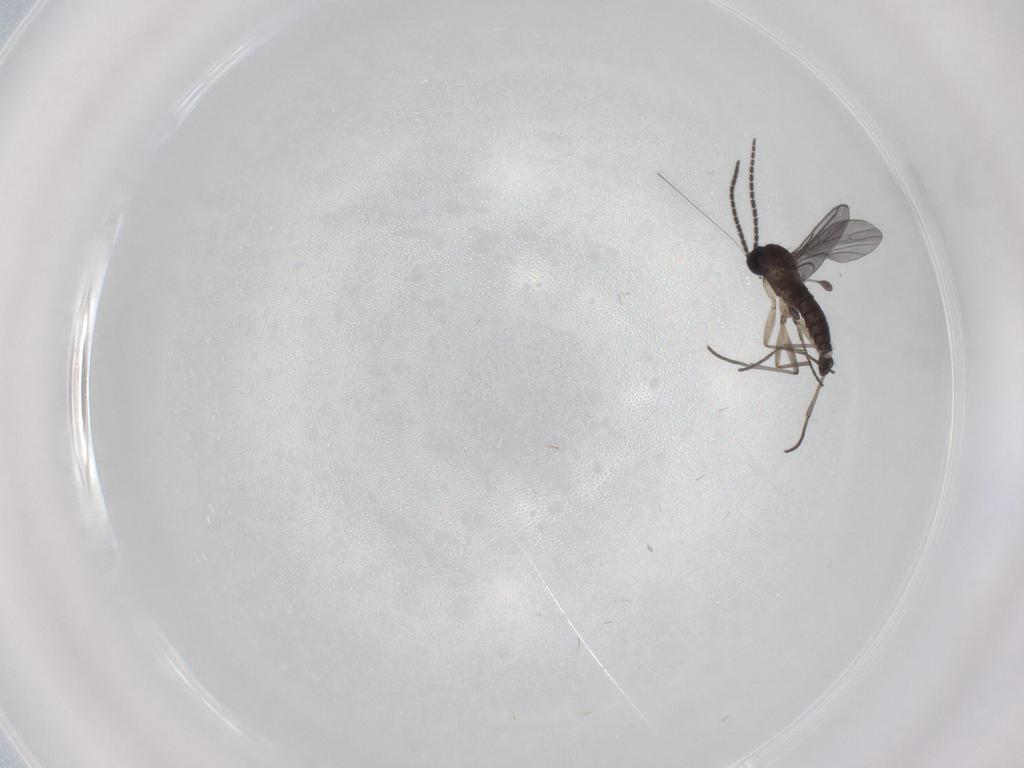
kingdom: Animalia
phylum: Arthropoda
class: Insecta
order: Diptera
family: Sciaridae
